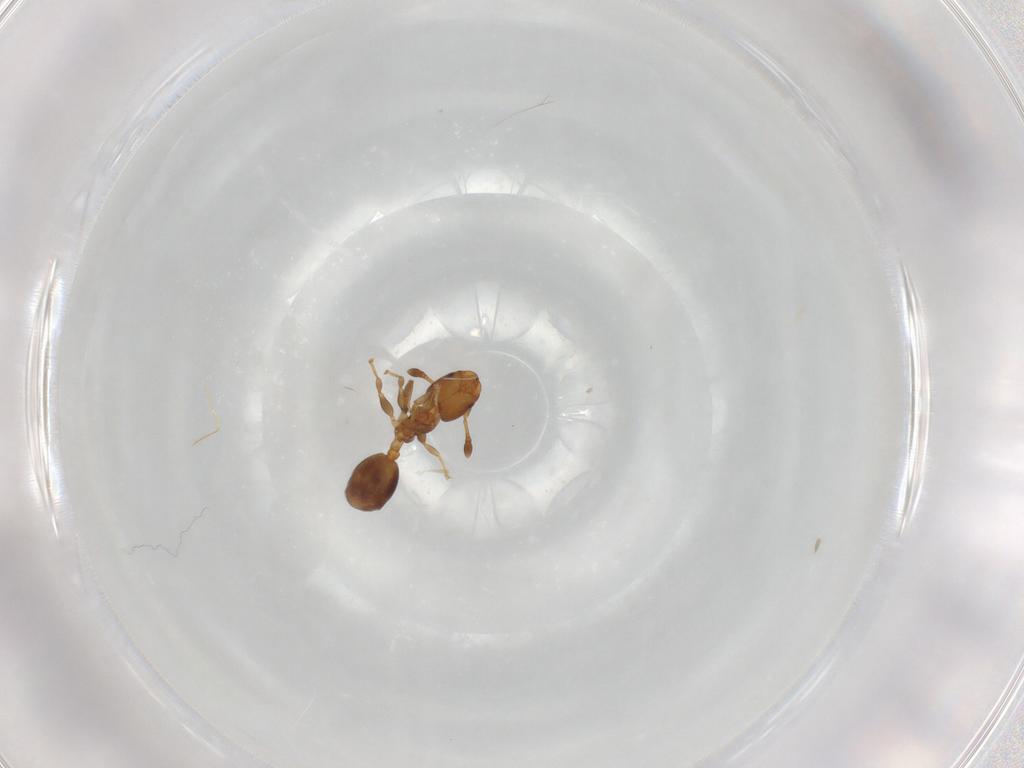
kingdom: Animalia
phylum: Arthropoda
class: Insecta
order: Hymenoptera
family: Formicidae
